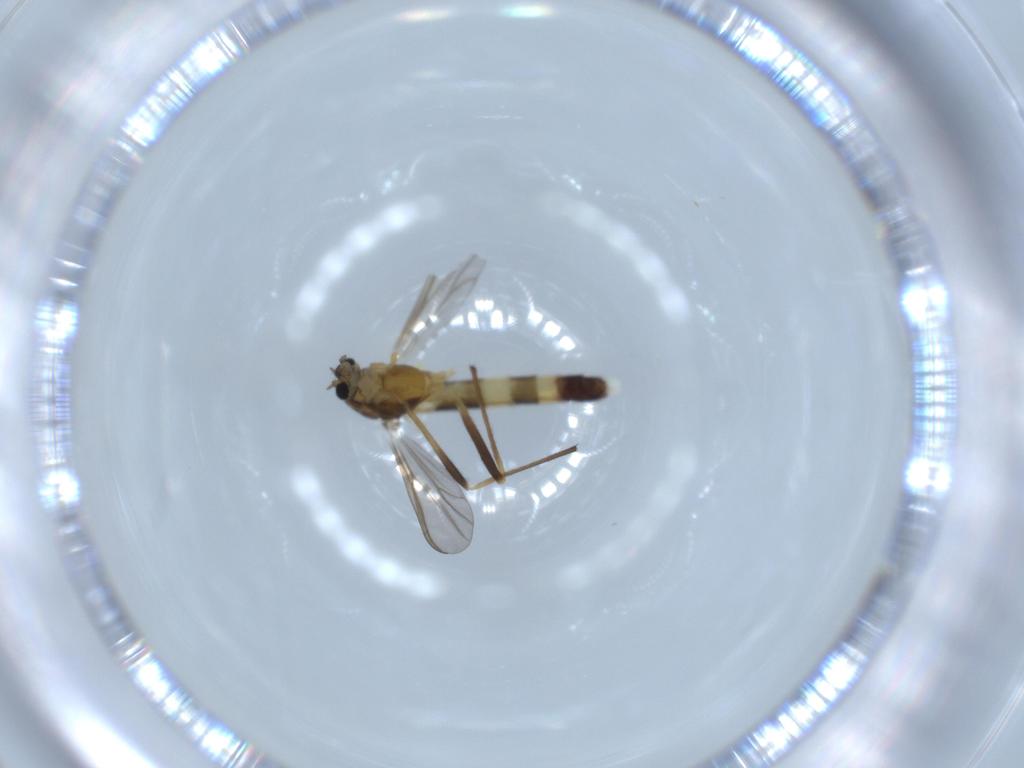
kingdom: Animalia
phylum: Arthropoda
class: Insecta
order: Diptera
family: Chironomidae
